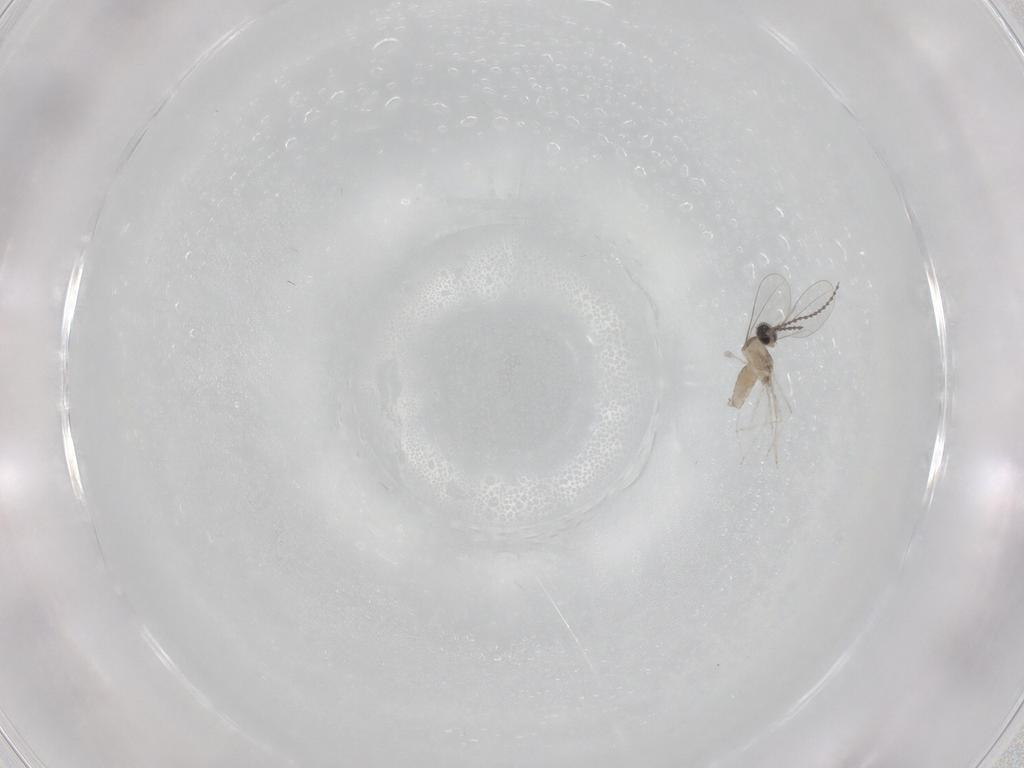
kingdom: Animalia
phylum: Arthropoda
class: Insecta
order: Diptera
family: Cecidomyiidae
